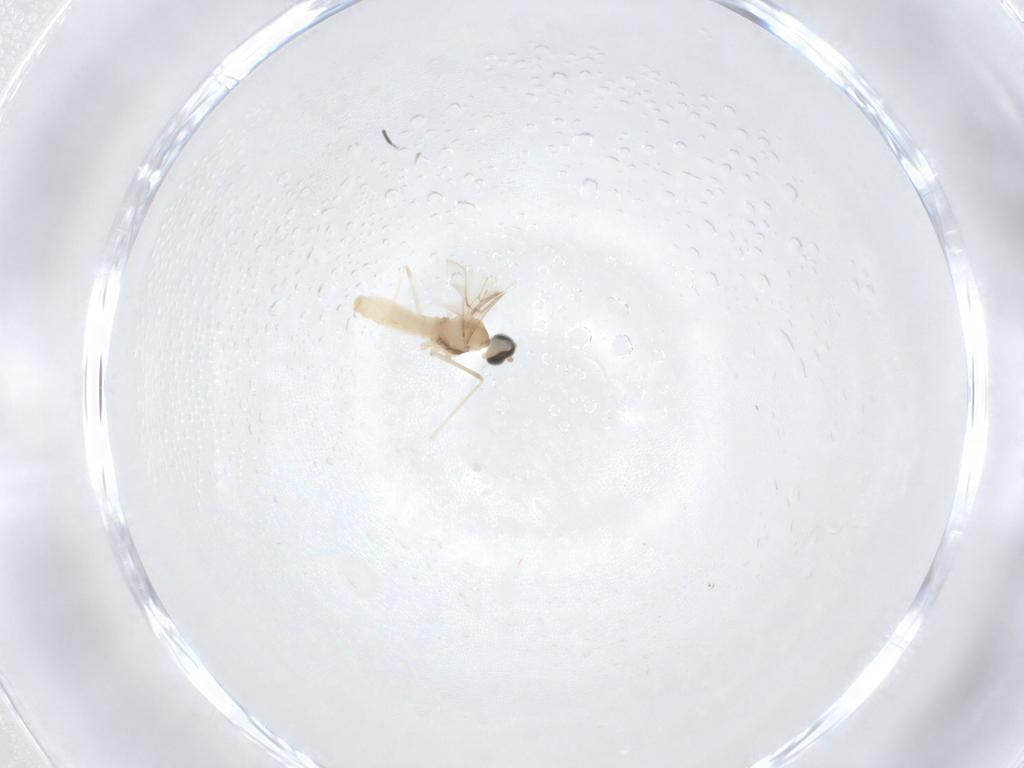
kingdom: Animalia
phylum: Arthropoda
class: Insecta
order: Diptera
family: Cecidomyiidae
